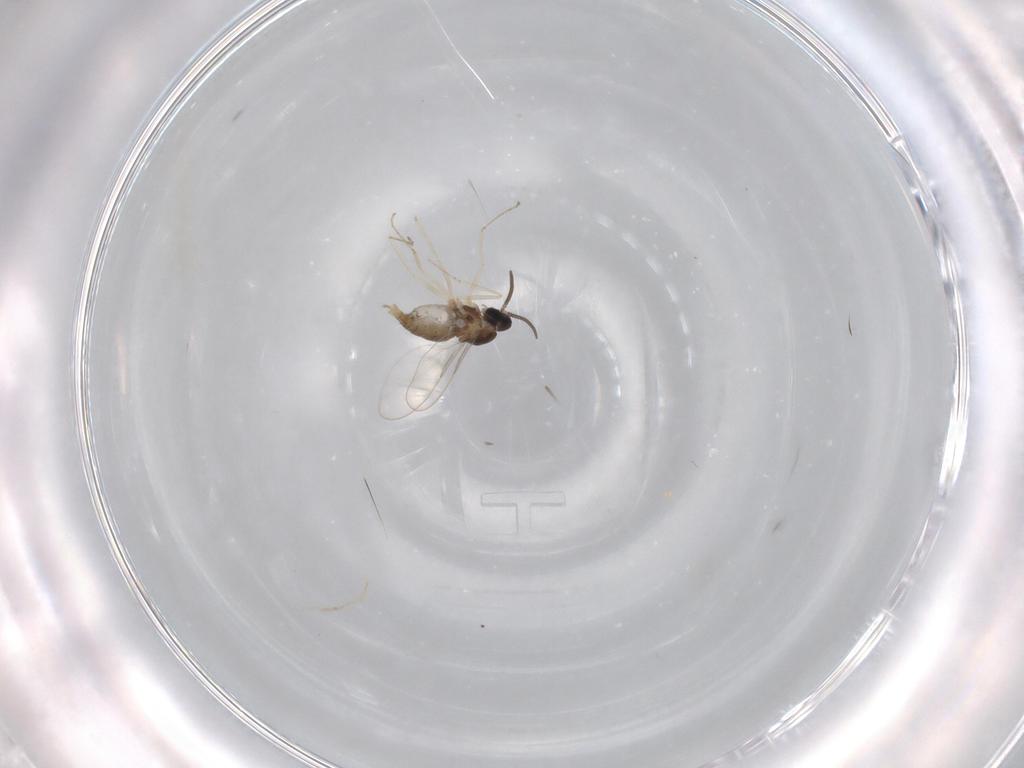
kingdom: Animalia
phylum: Arthropoda
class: Insecta
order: Diptera
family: Cecidomyiidae
